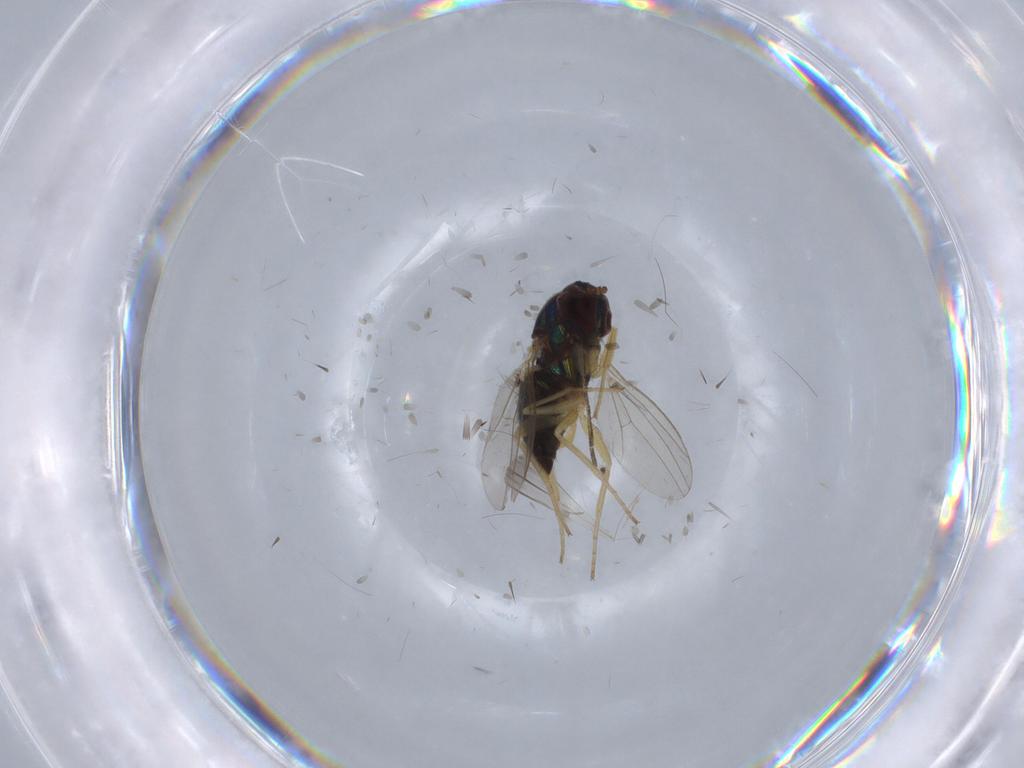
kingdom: Animalia
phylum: Arthropoda
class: Insecta
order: Diptera
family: Dolichopodidae
